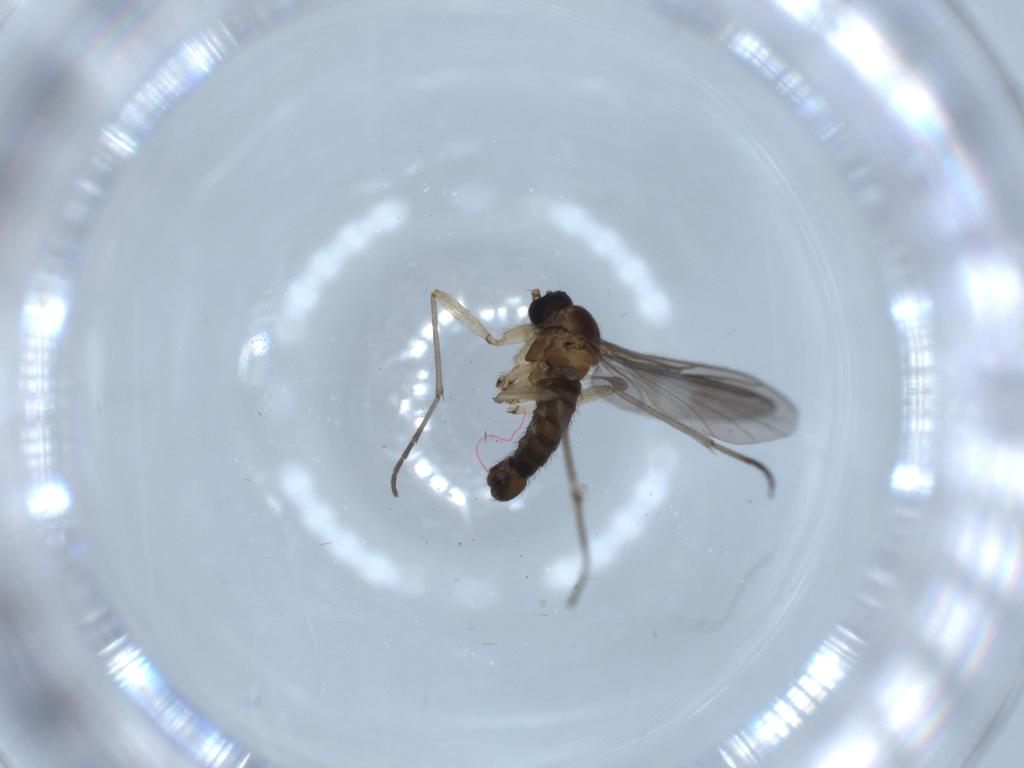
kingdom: Animalia
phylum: Arthropoda
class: Insecta
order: Diptera
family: Sciaridae
